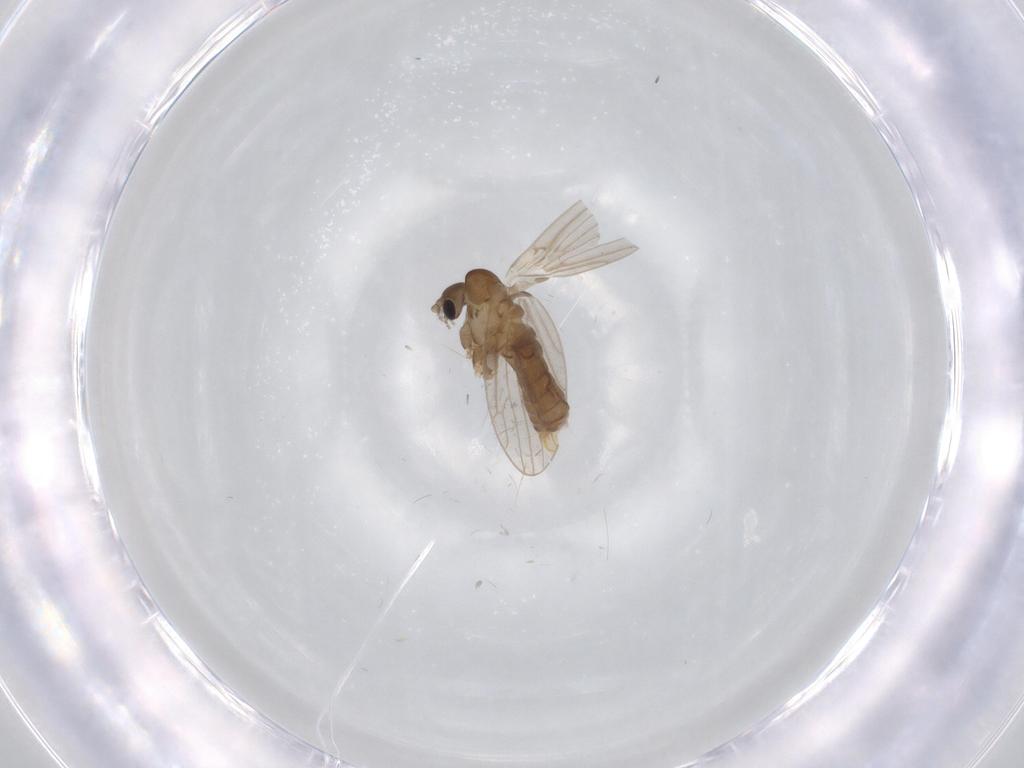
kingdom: Animalia
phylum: Arthropoda
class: Insecta
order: Diptera
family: Psychodidae
